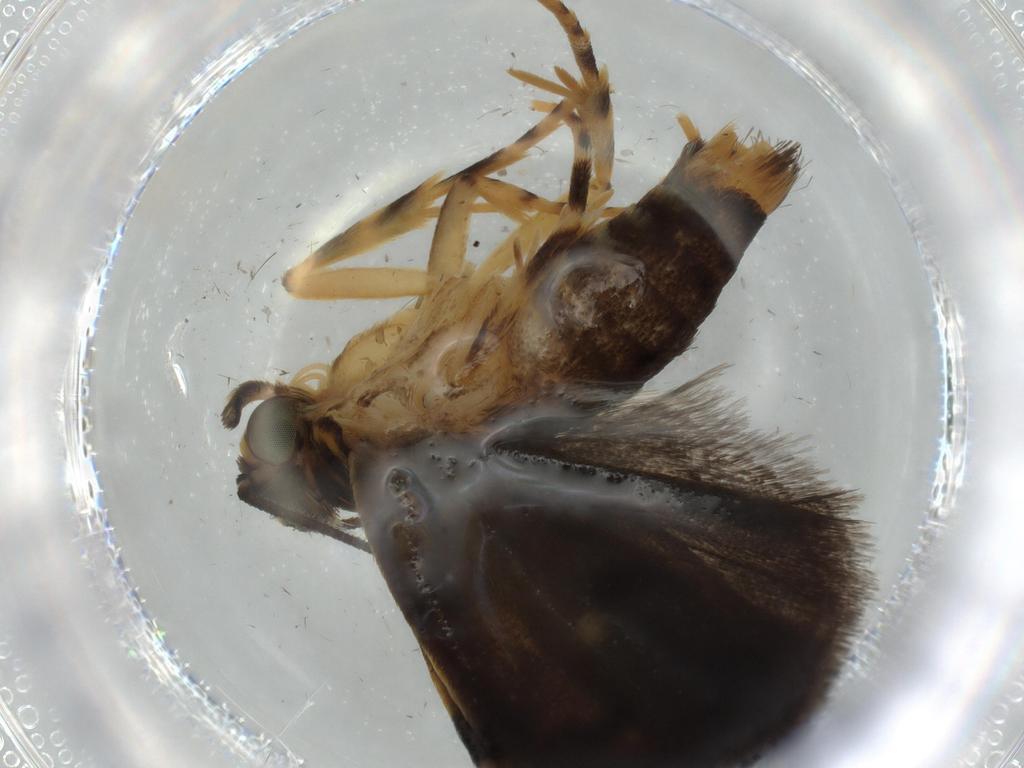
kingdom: Animalia
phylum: Arthropoda
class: Insecta
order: Lepidoptera
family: Immidae
